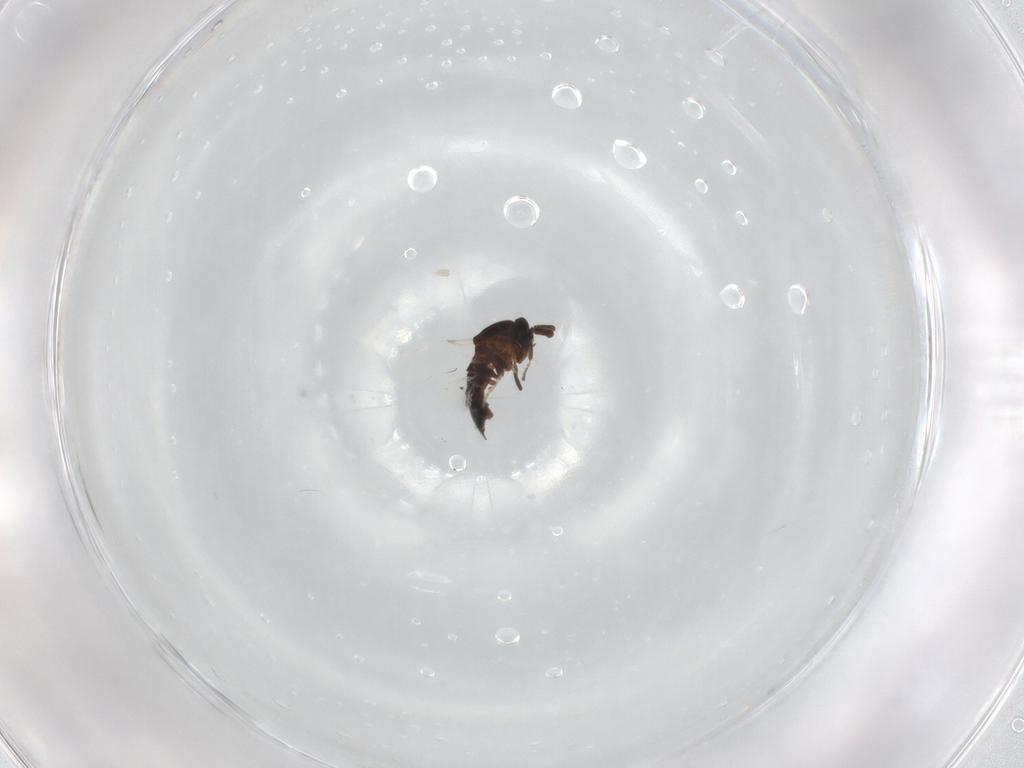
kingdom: Animalia
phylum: Arthropoda
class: Insecta
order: Diptera
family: Scatopsidae
